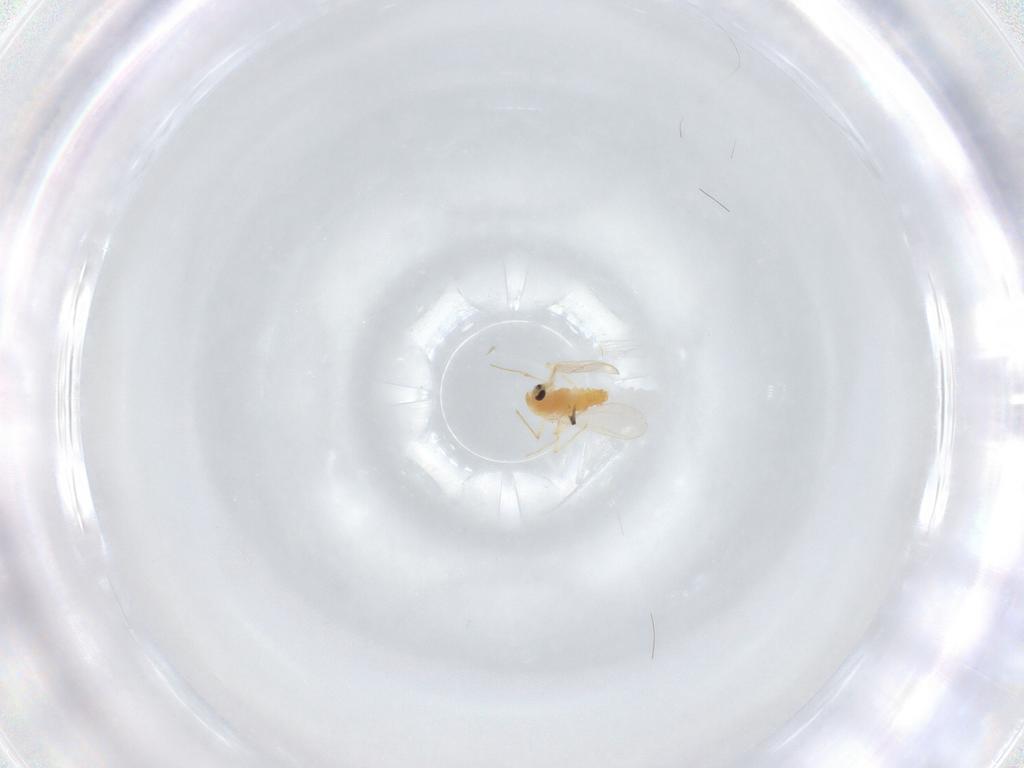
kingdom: Animalia
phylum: Arthropoda
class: Insecta
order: Diptera
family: Chironomidae
